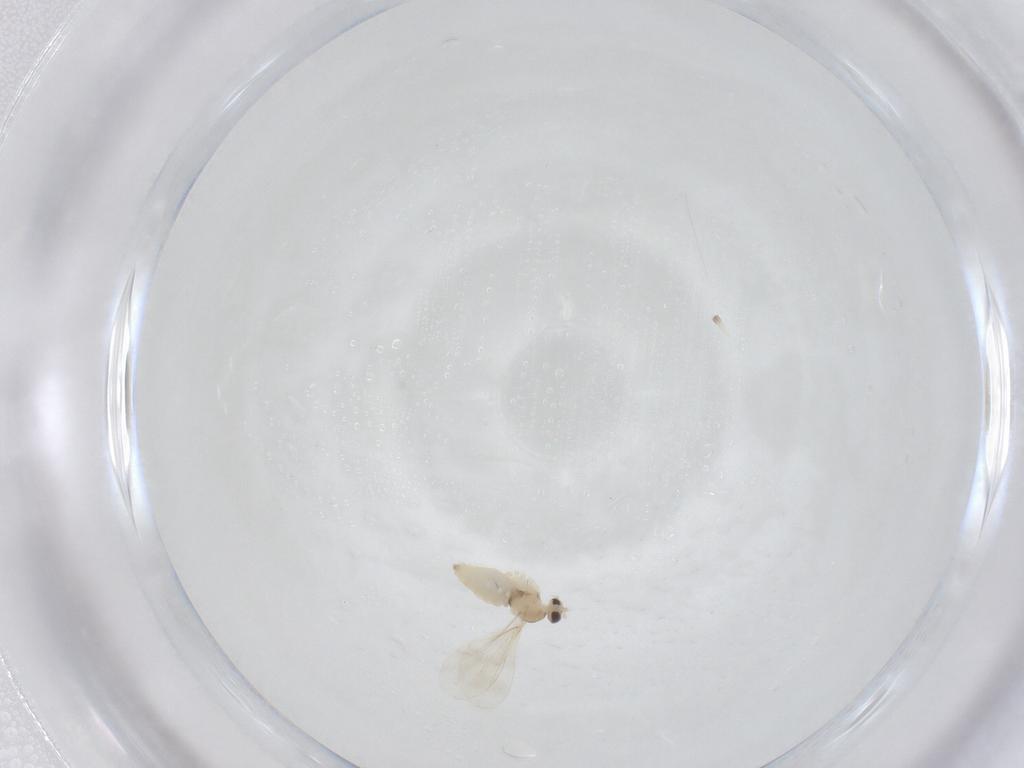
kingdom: Animalia
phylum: Arthropoda
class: Insecta
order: Diptera
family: Cecidomyiidae
